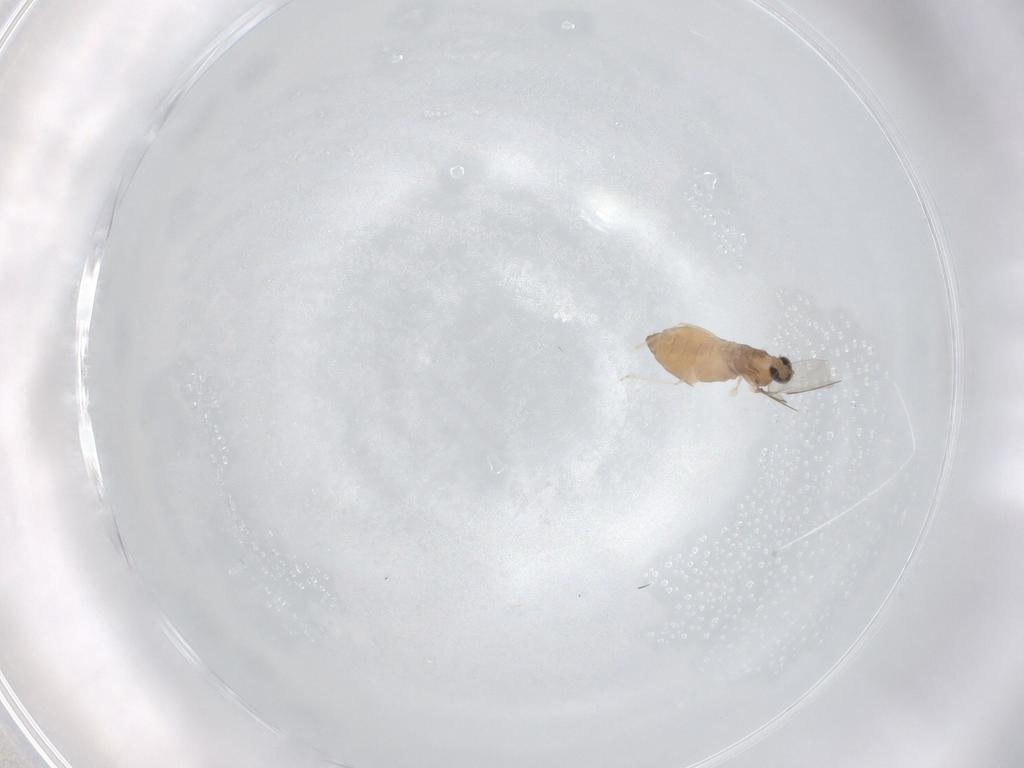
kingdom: Animalia
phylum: Arthropoda
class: Insecta
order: Diptera
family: Cecidomyiidae
